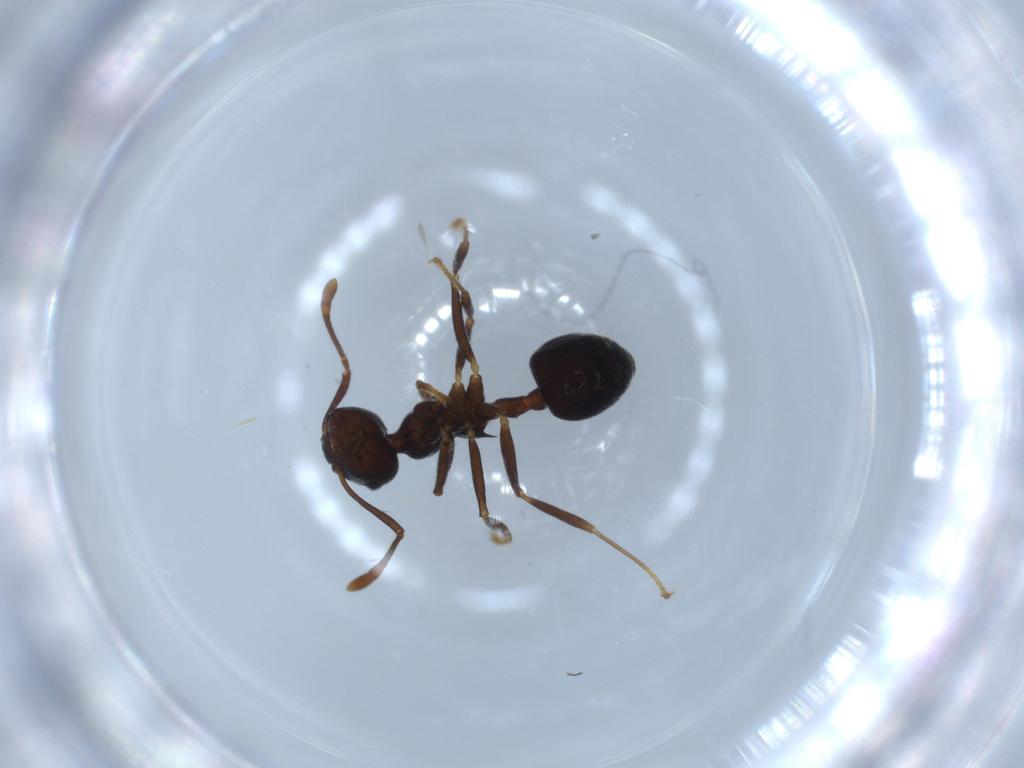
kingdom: Animalia
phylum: Arthropoda
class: Insecta
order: Hymenoptera
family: Formicidae
